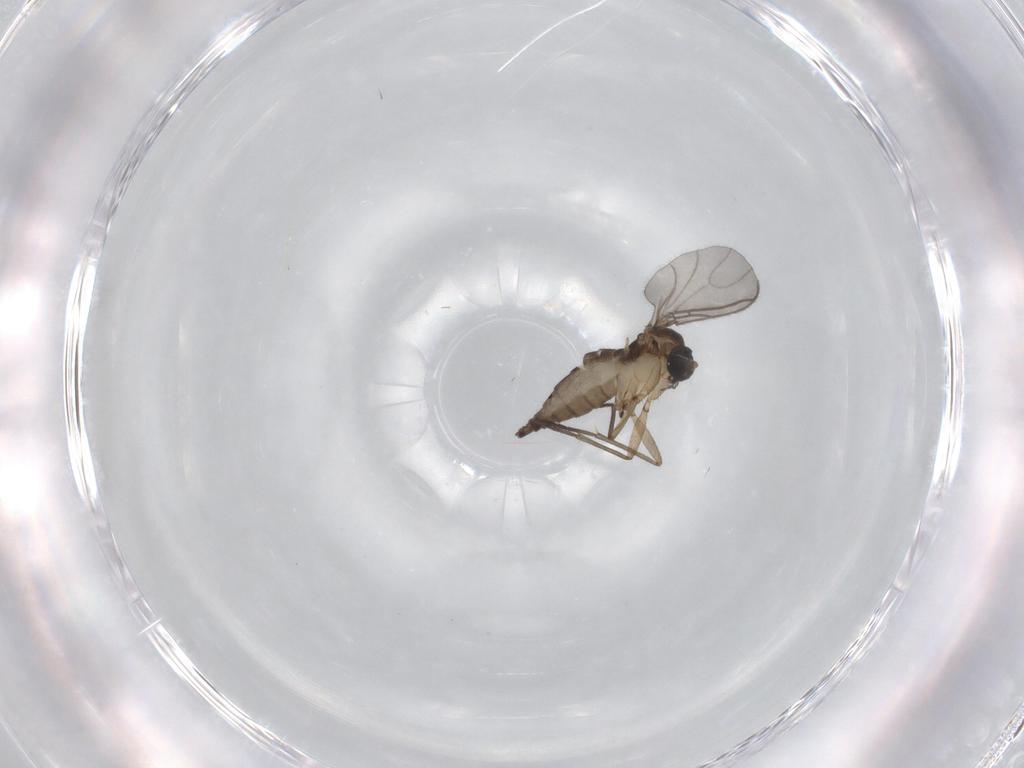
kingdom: Animalia
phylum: Arthropoda
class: Insecta
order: Diptera
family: Sciaridae
